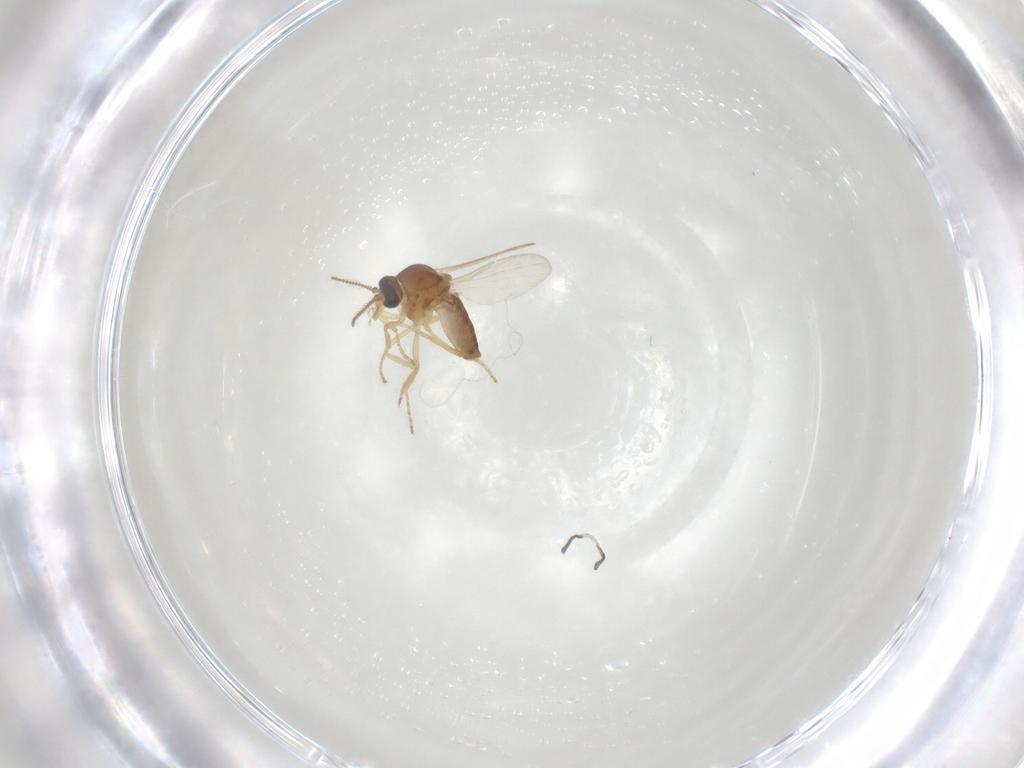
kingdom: Animalia
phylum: Arthropoda
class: Insecta
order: Diptera
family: Ceratopogonidae
